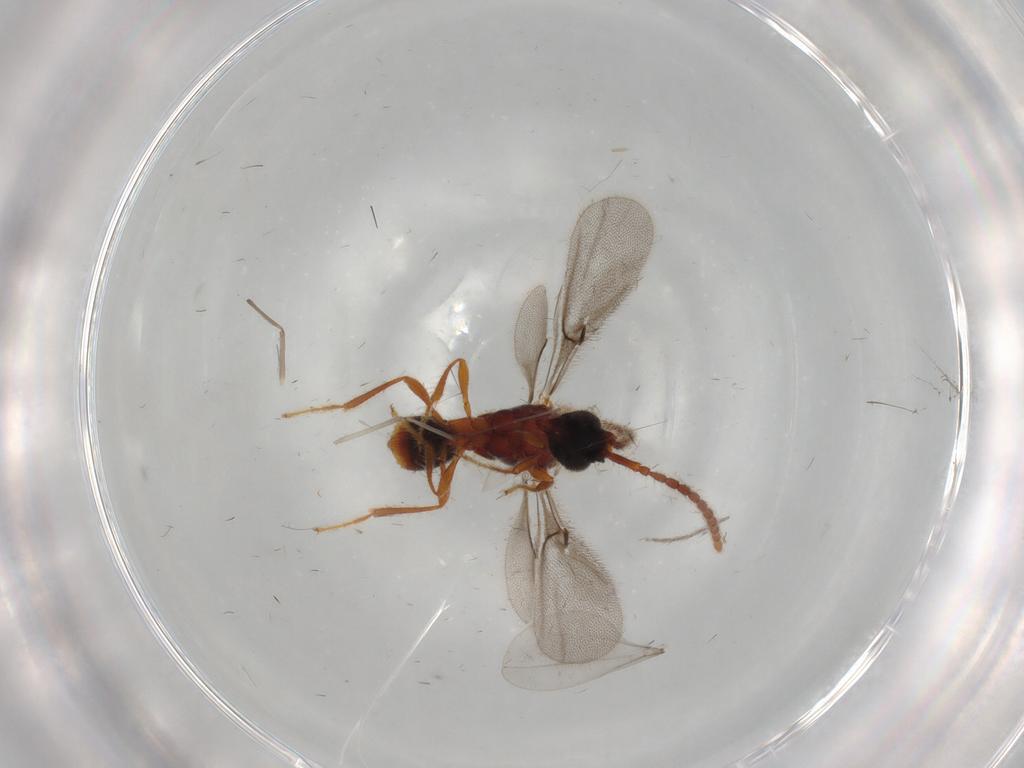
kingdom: Animalia
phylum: Arthropoda
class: Insecta
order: Hymenoptera
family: Diapriidae
